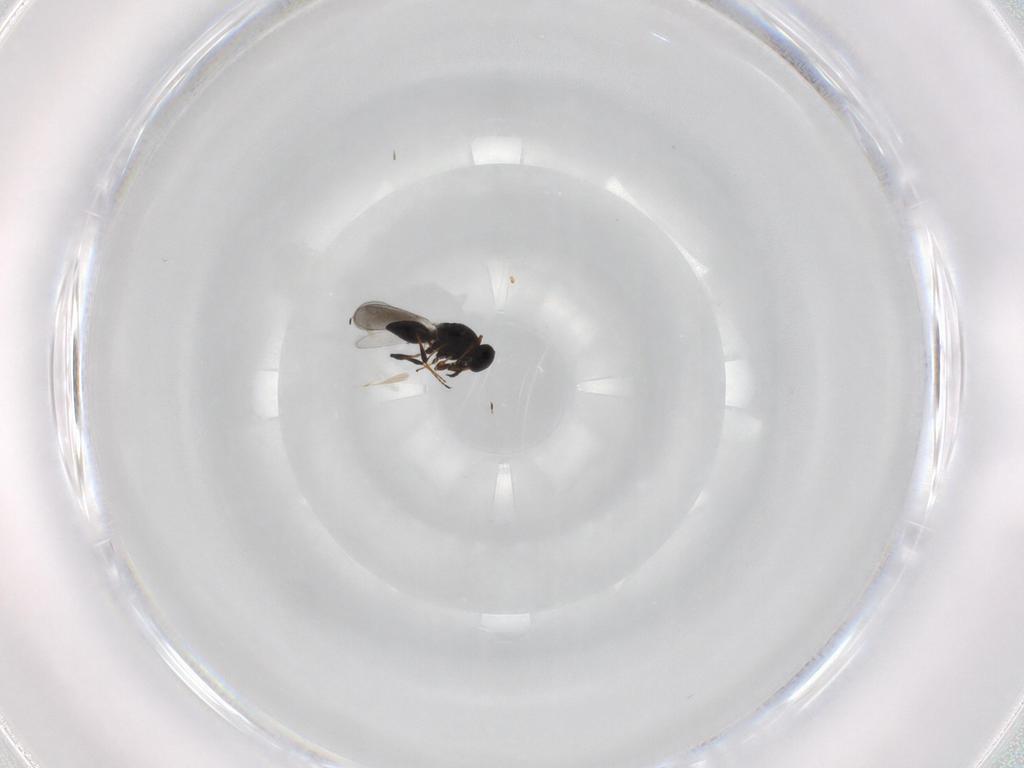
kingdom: Animalia
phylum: Arthropoda
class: Insecta
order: Hymenoptera
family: Platygastridae
